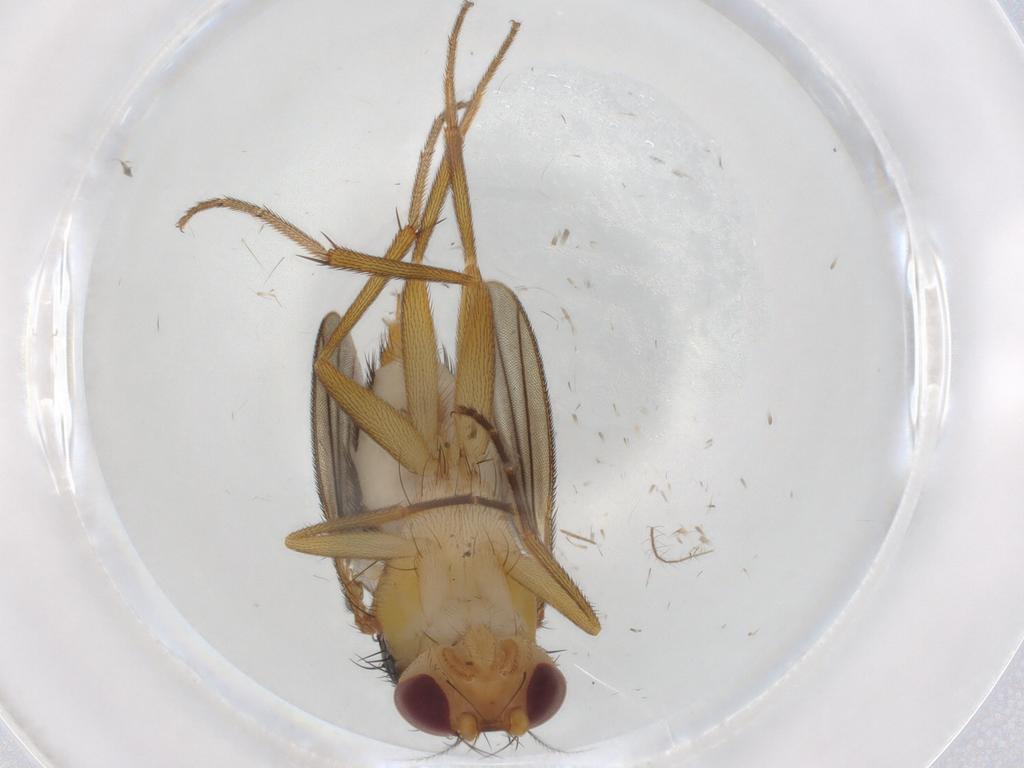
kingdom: Animalia
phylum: Arthropoda
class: Insecta
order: Diptera
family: Clusiidae
